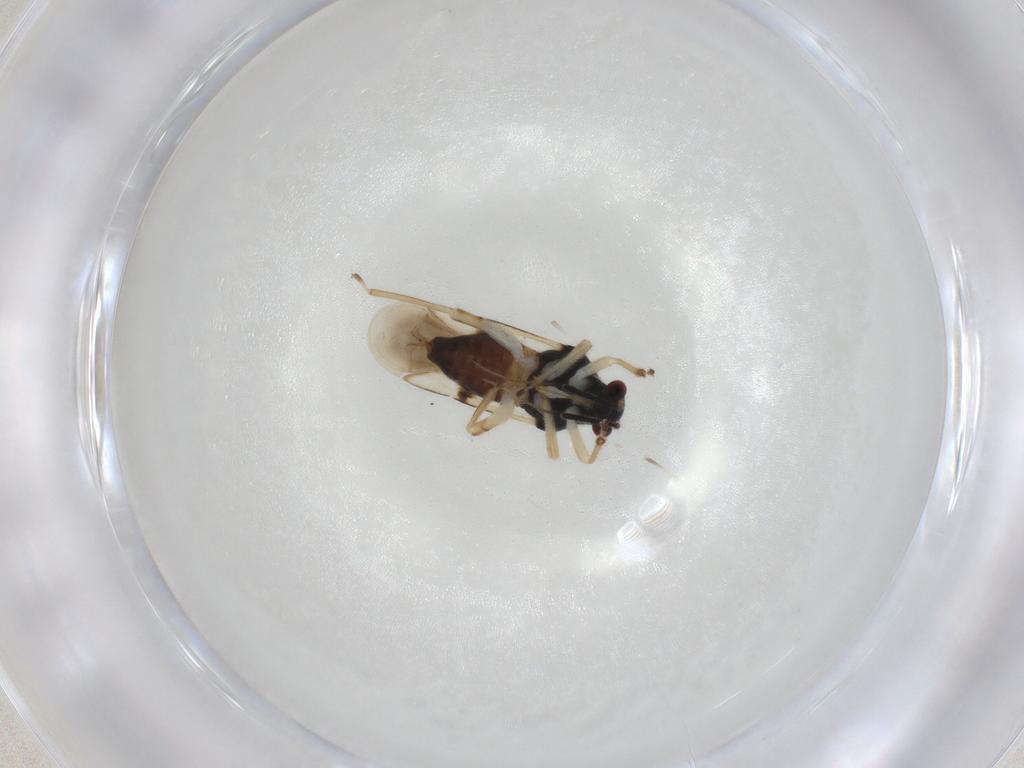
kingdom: Animalia
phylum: Arthropoda
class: Insecta
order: Hemiptera
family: Miridae
